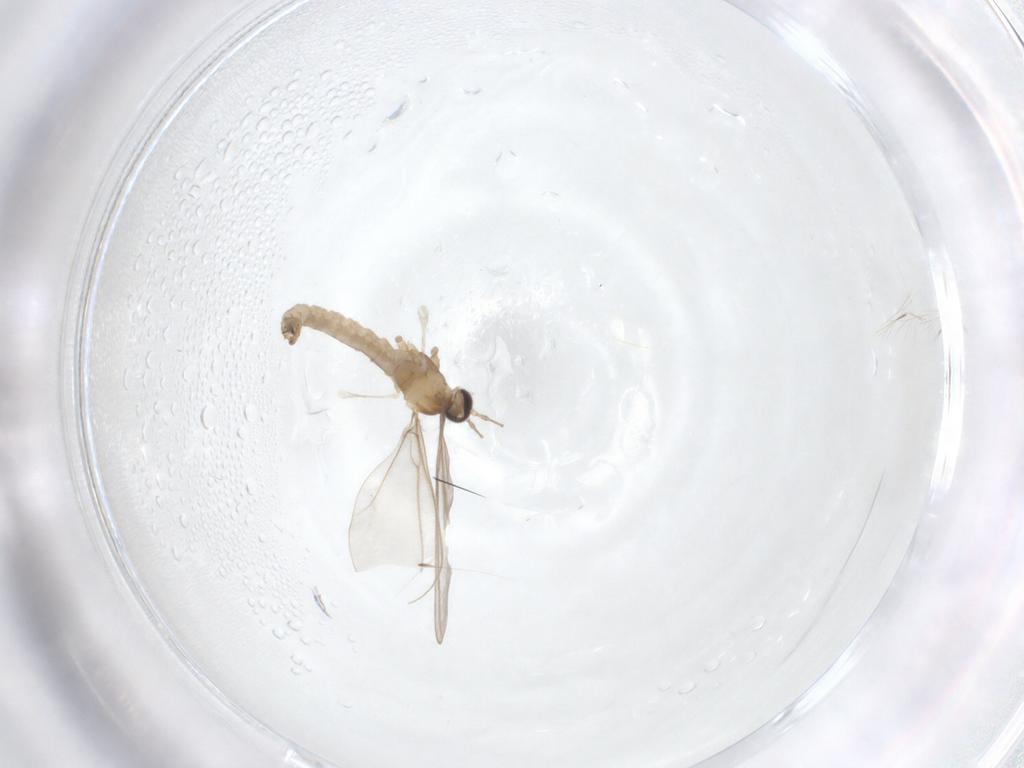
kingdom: Animalia
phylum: Arthropoda
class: Insecta
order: Diptera
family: Cecidomyiidae
